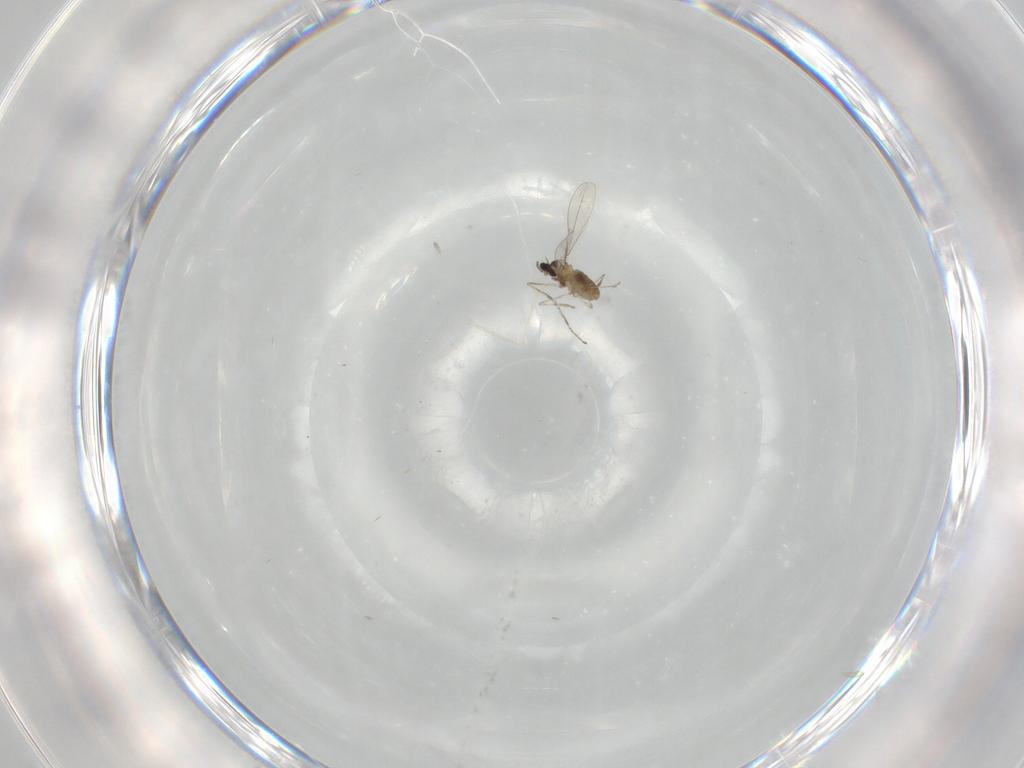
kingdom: Animalia
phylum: Arthropoda
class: Insecta
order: Diptera
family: Cecidomyiidae
